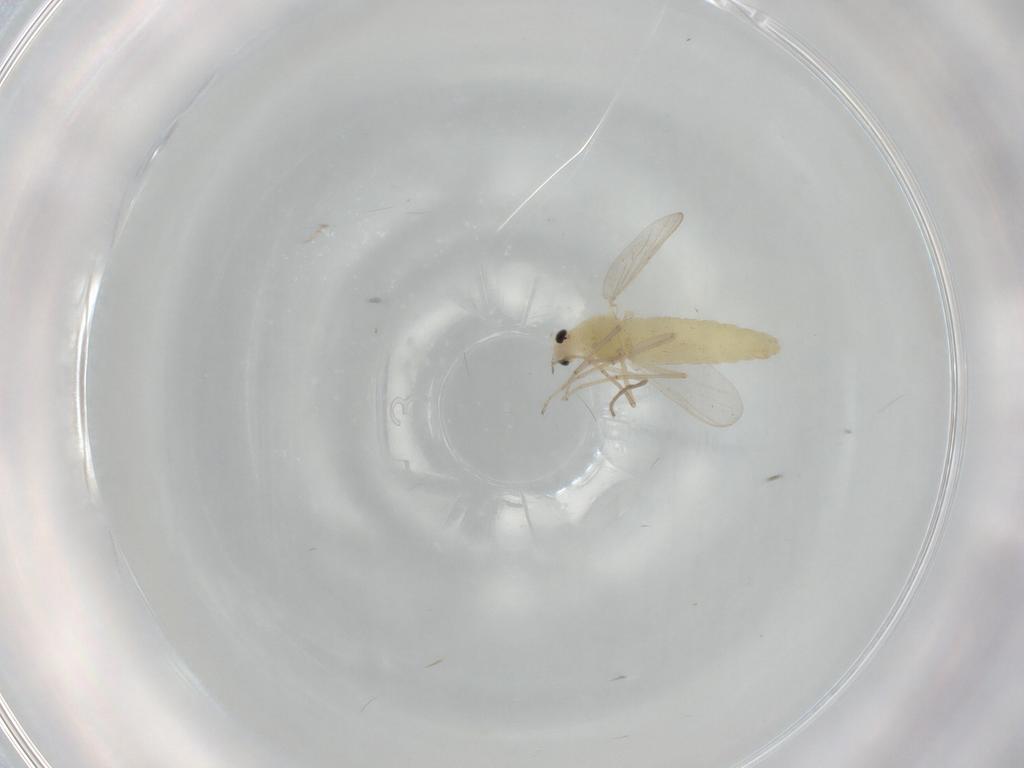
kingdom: Animalia
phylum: Arthropoda
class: Insecta
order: Diptera
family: Chironomidae
